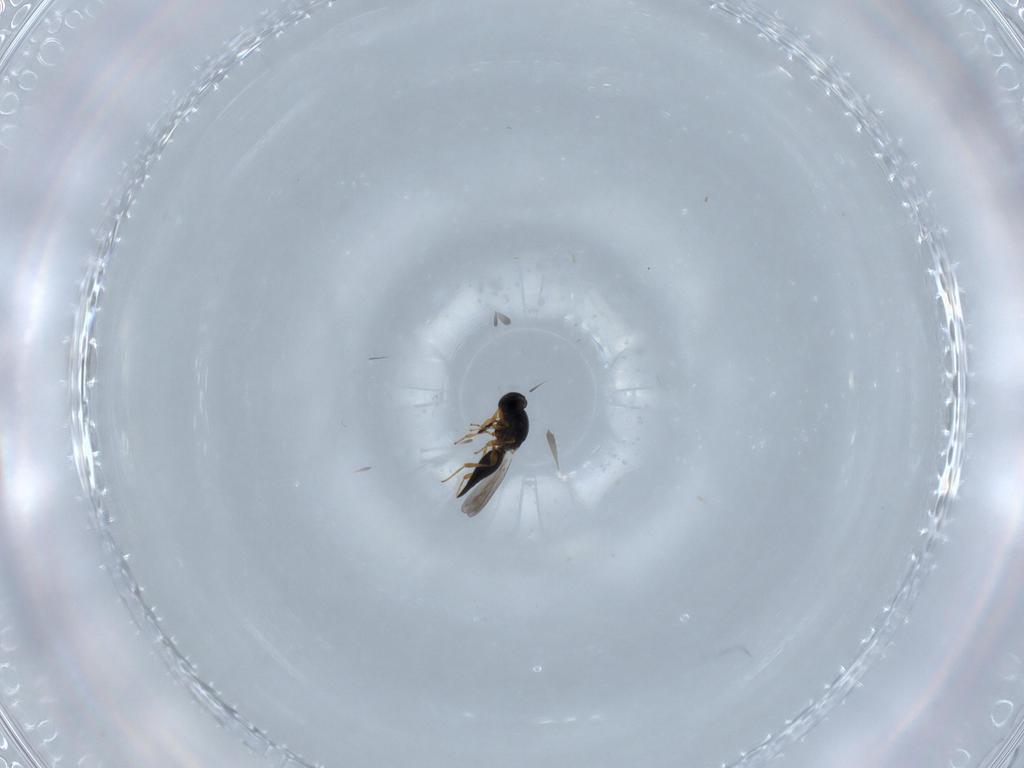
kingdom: Animalia
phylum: Arthropoda
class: Insecta
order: Hymenoptera
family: Platygastridae
